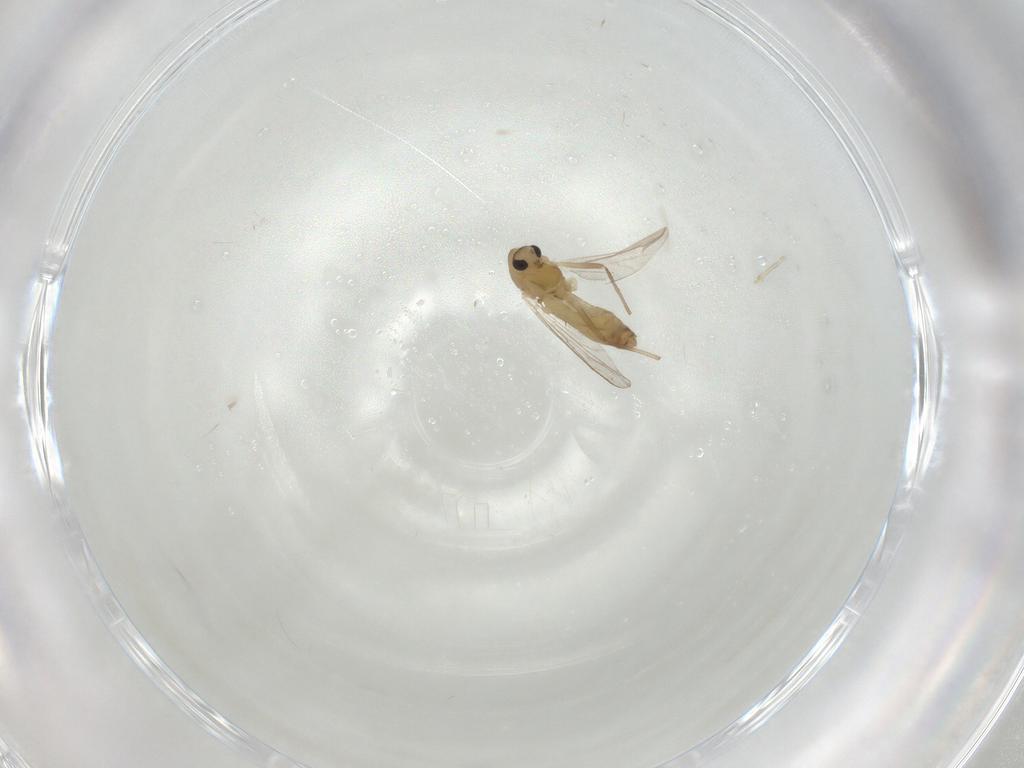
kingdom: Animalia
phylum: Arthropoda
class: Insecta
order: Diptera
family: Chironomidae
